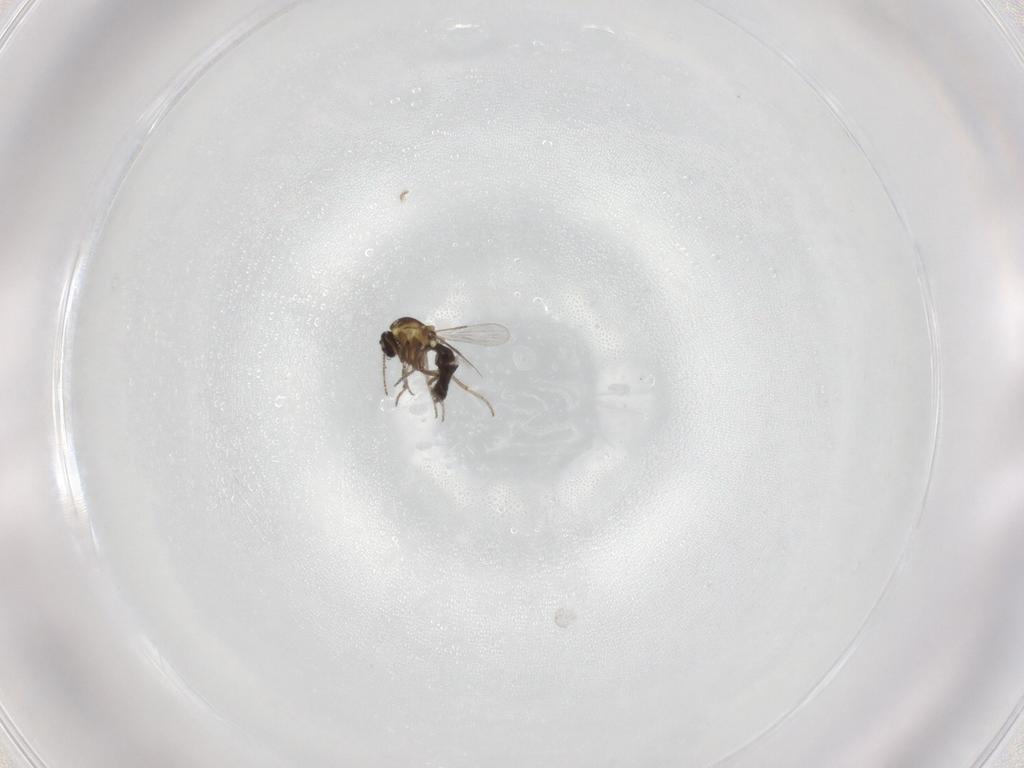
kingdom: Animalia
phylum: Arthropoda
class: Insecta
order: Diptera
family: Ceratopogonidae
